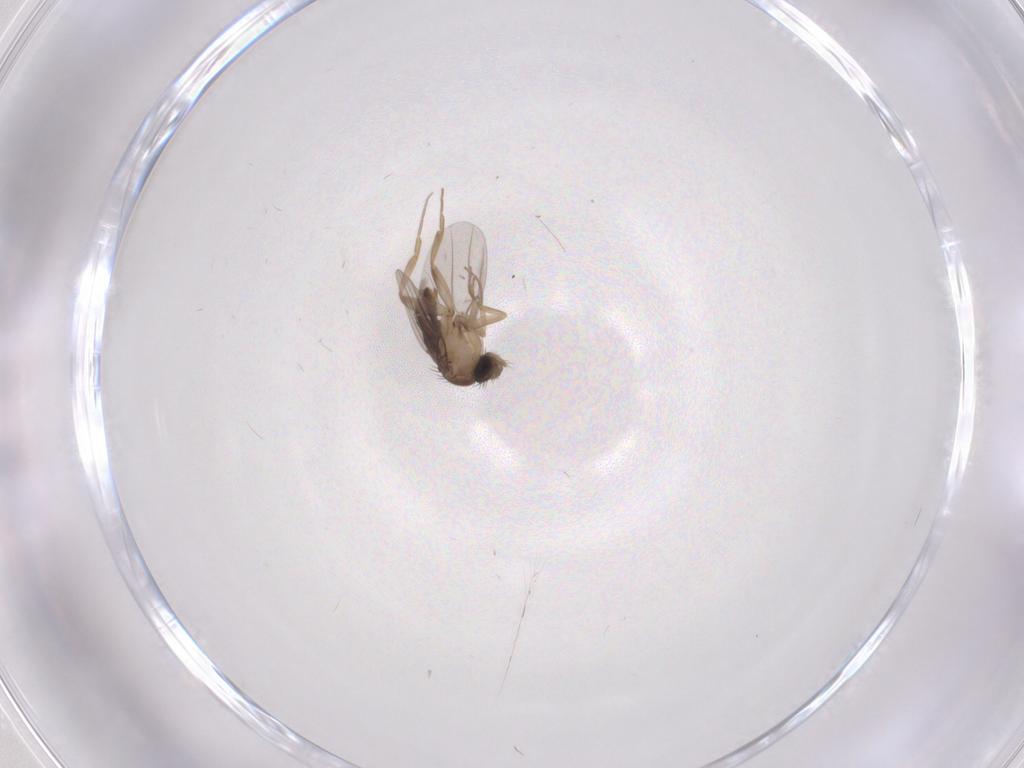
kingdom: Animalia
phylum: Arthropoda
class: Insecta
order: Diptera
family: Phoridae
